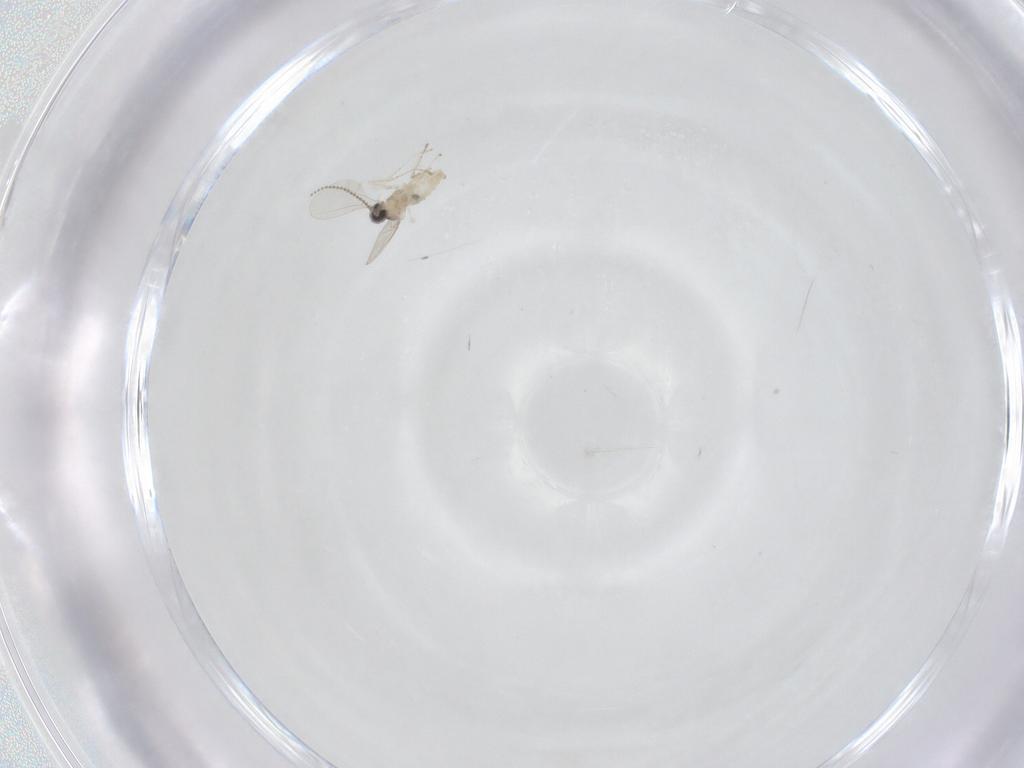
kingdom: Animalia
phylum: Arthropoda
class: Insecta
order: Diptera
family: Cecidomyiidae
